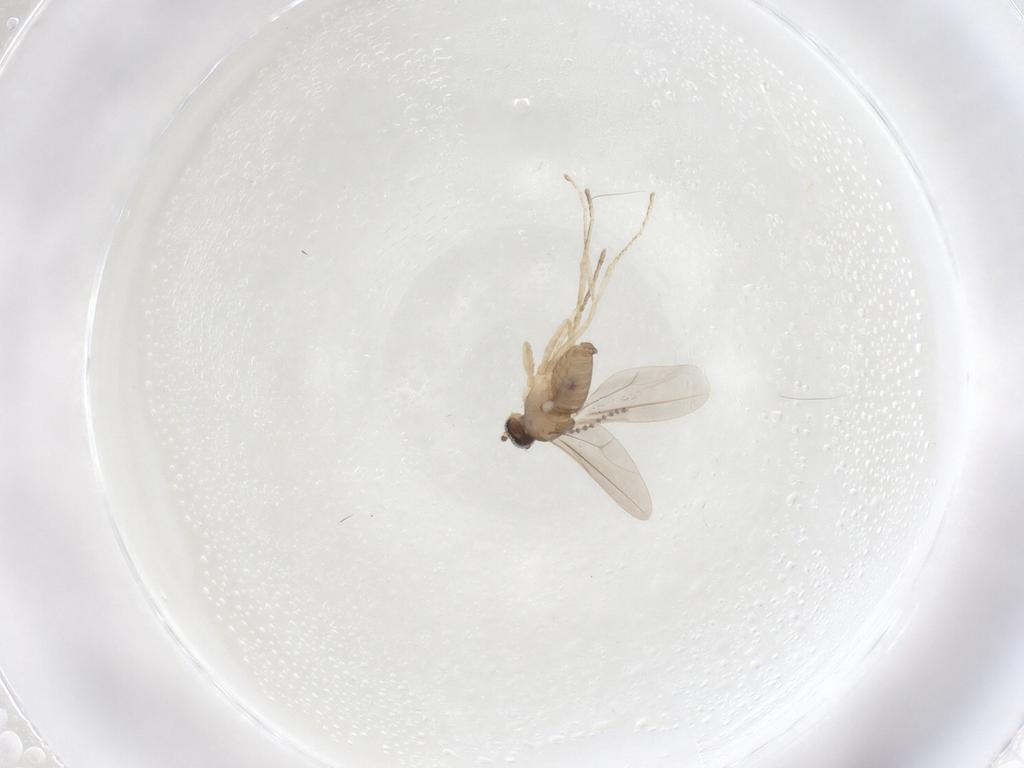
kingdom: Animalia
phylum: Arthropoda
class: Insecta
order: Diptera
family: Cecidomyiidae
